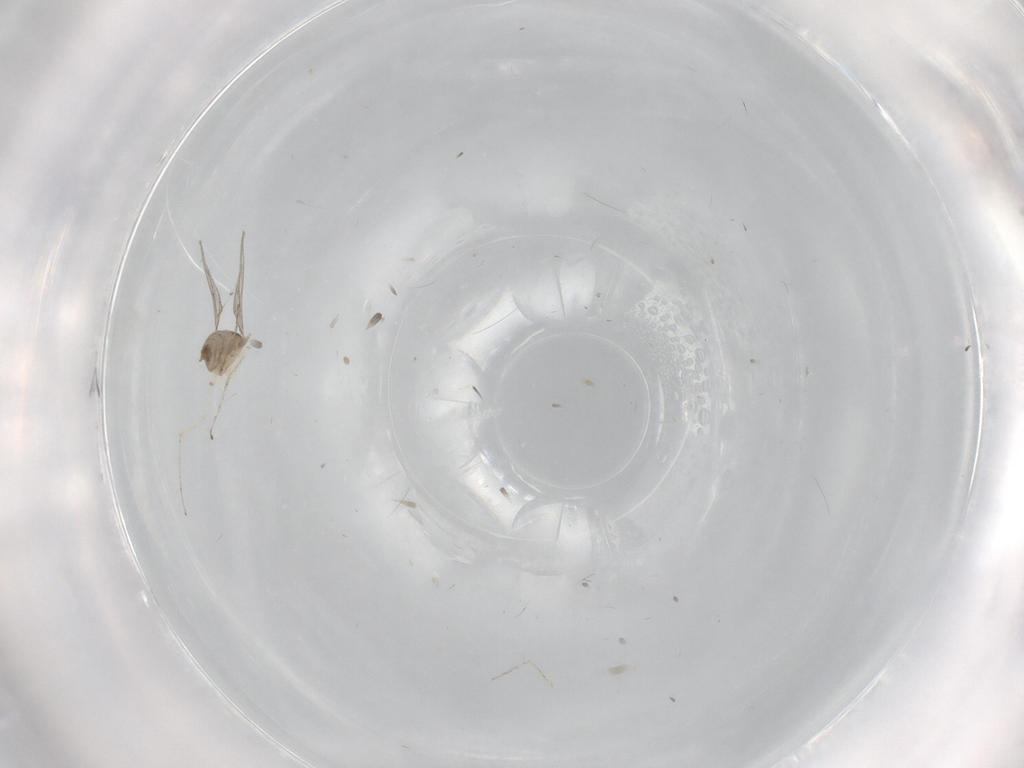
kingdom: Animalia
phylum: Arthropoda
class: Insecta
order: Diptera
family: Cecidomyiidae
